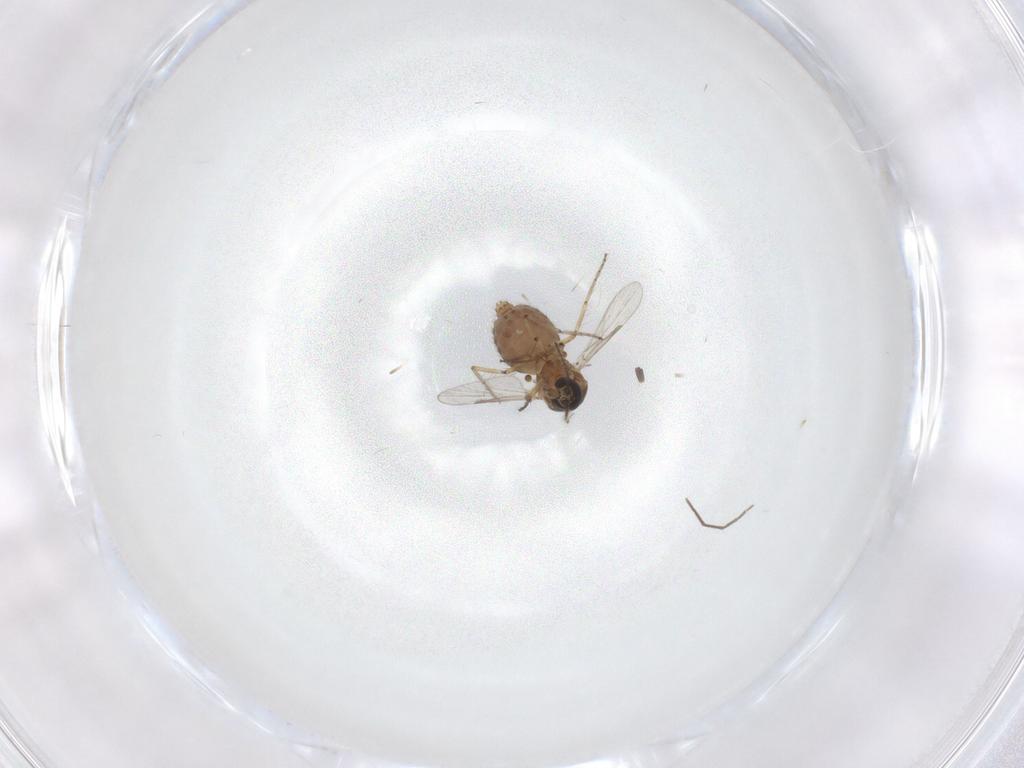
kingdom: Animalia
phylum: Arthropoda
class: Insecta
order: Diptera
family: Ceratopogonidae
